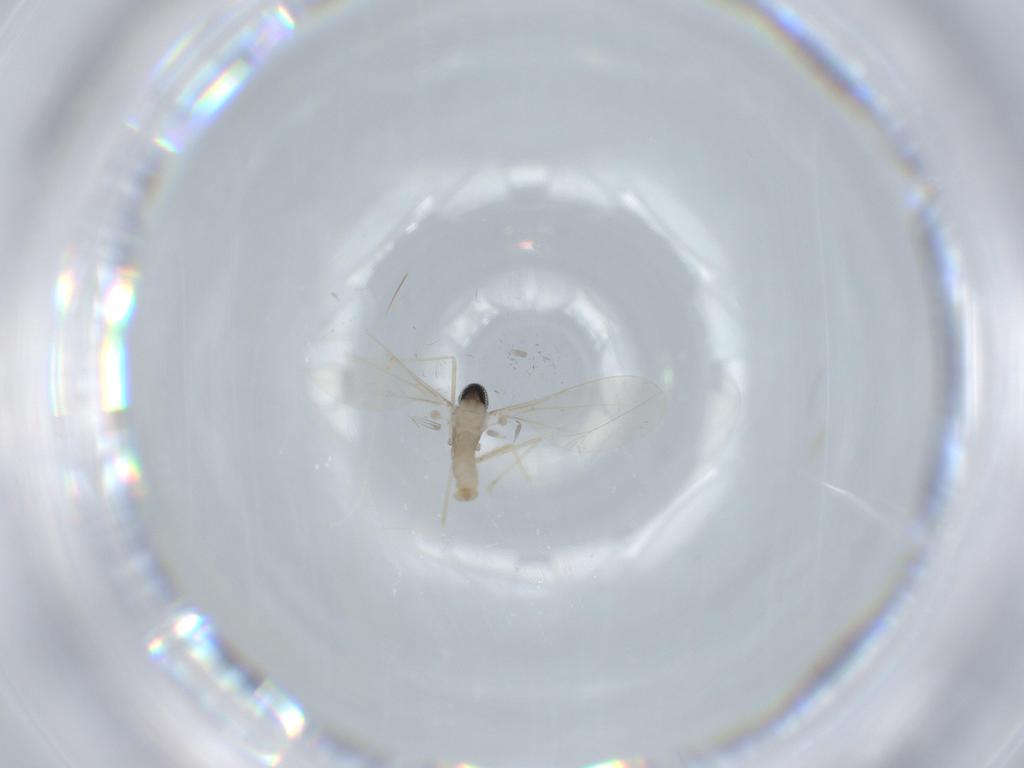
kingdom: Animalia
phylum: Arthropoda
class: Insecta
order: Diptera
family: Cecidomyiidae
